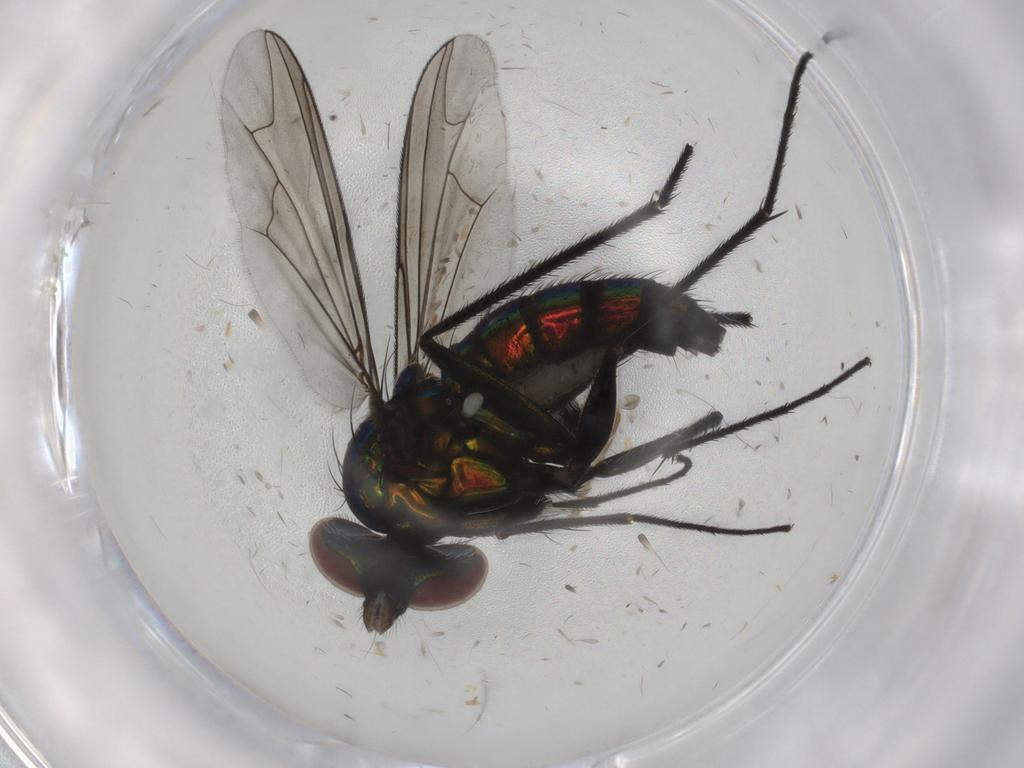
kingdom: Animalia
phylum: Arthropoda
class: Insecta
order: Diptera
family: Dolichopodidae
